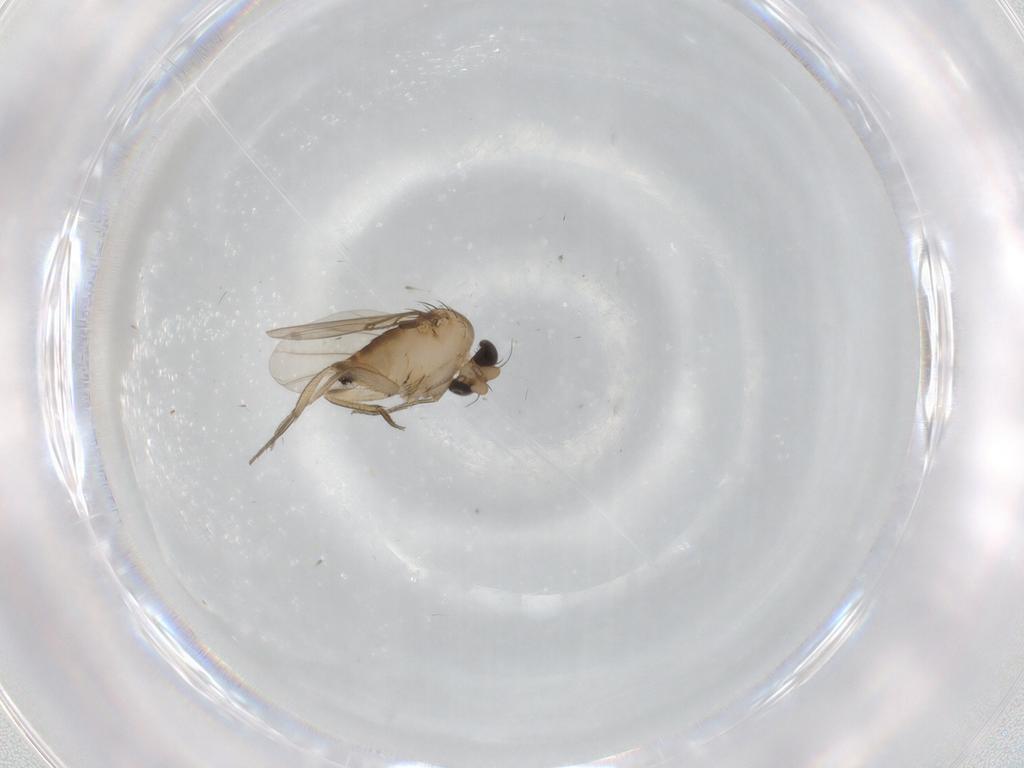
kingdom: Animalia
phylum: Arthropoda
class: Insecta
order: Diptera
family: Phoridae
